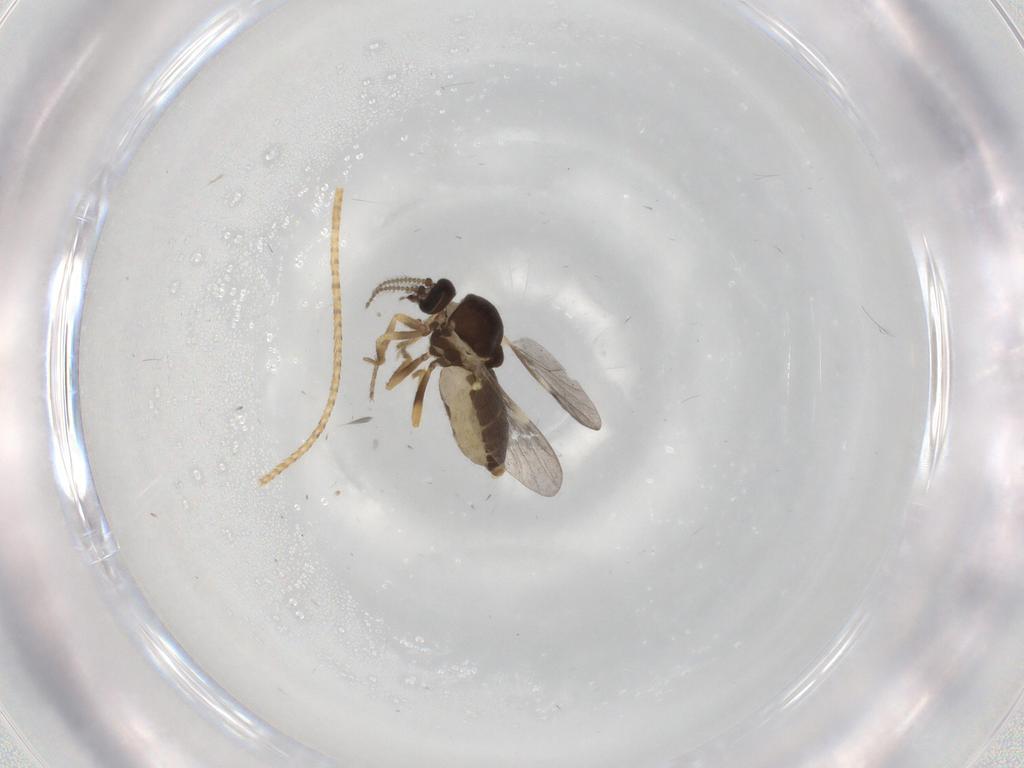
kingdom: Animalia
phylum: Arthropoda
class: Insecta
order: Diptera
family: Ceratopogonidae
